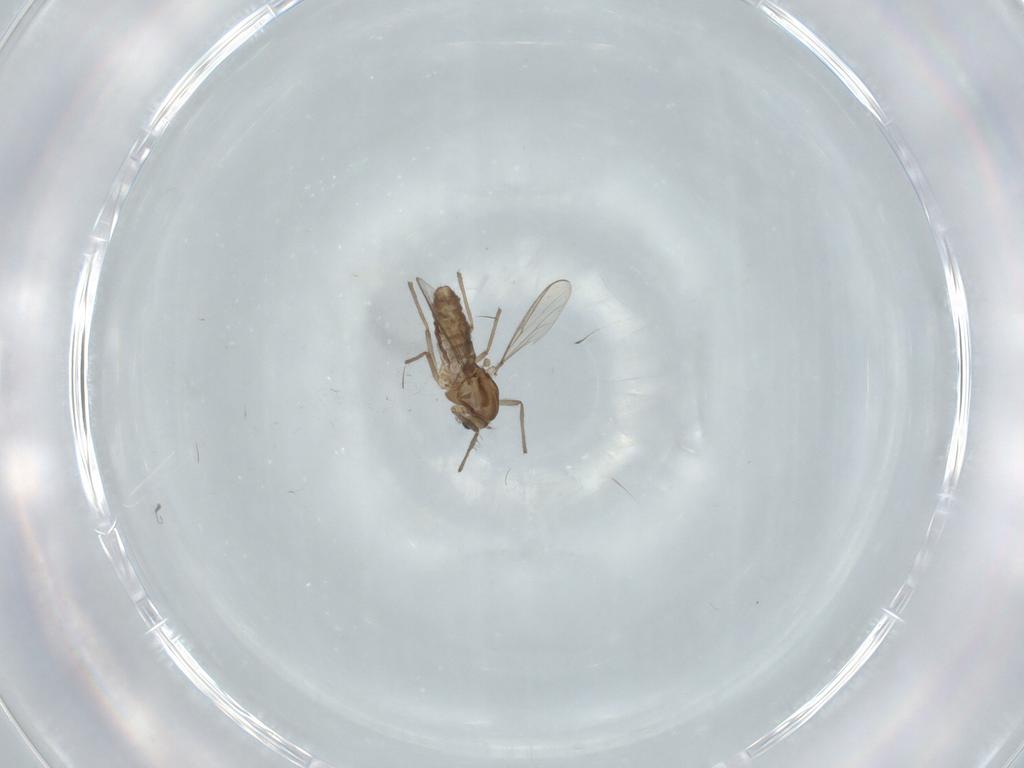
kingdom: Animalia
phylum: Arthropoda
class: Insecta
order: Diptera
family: Chironomidae
